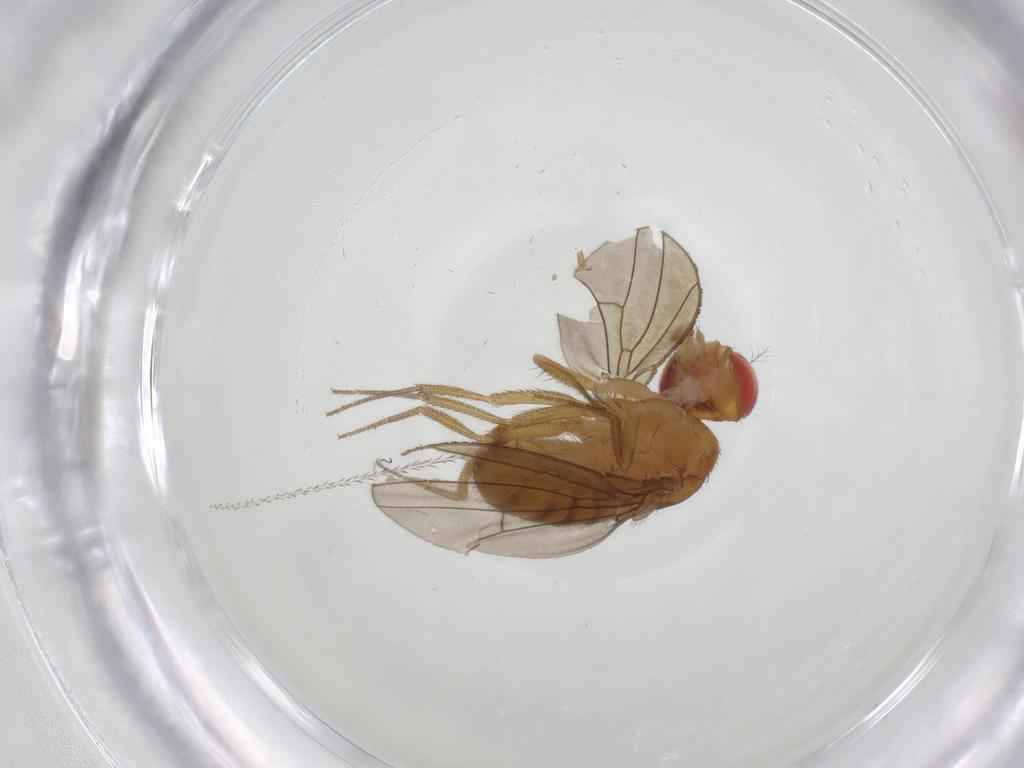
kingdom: Animalia
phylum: Arthropoda
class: Insecta
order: Diptera
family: Drosophilidae
